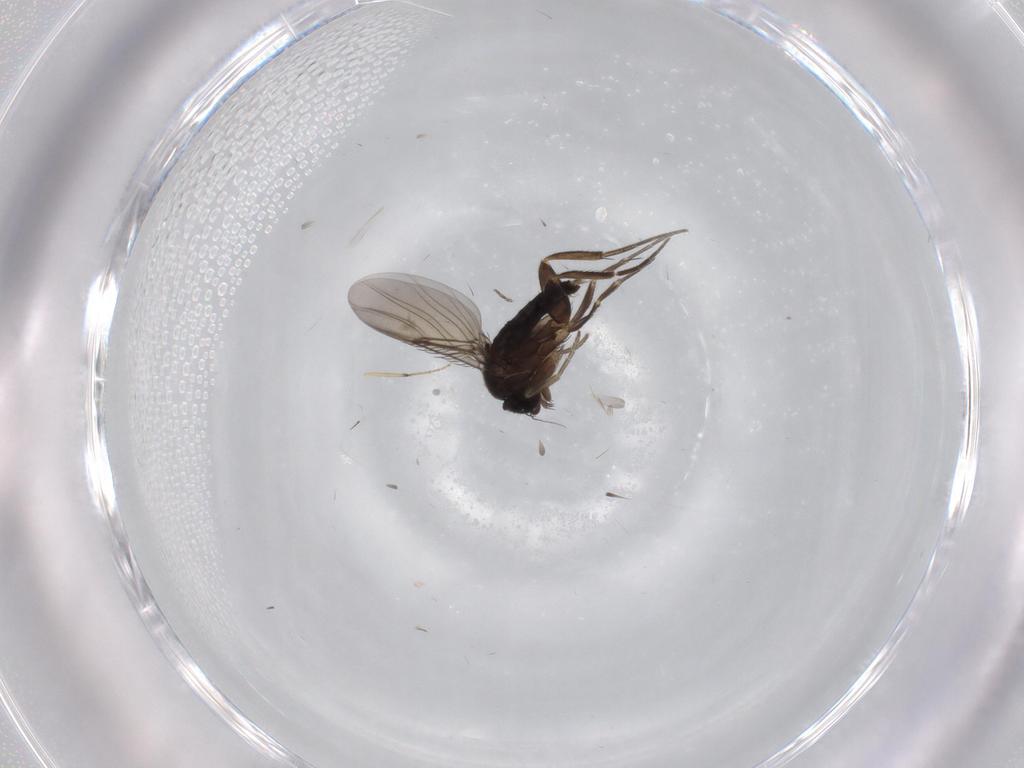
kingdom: Animalia
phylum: Arthropoda
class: Insecta
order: Diptera
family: Phoridae
